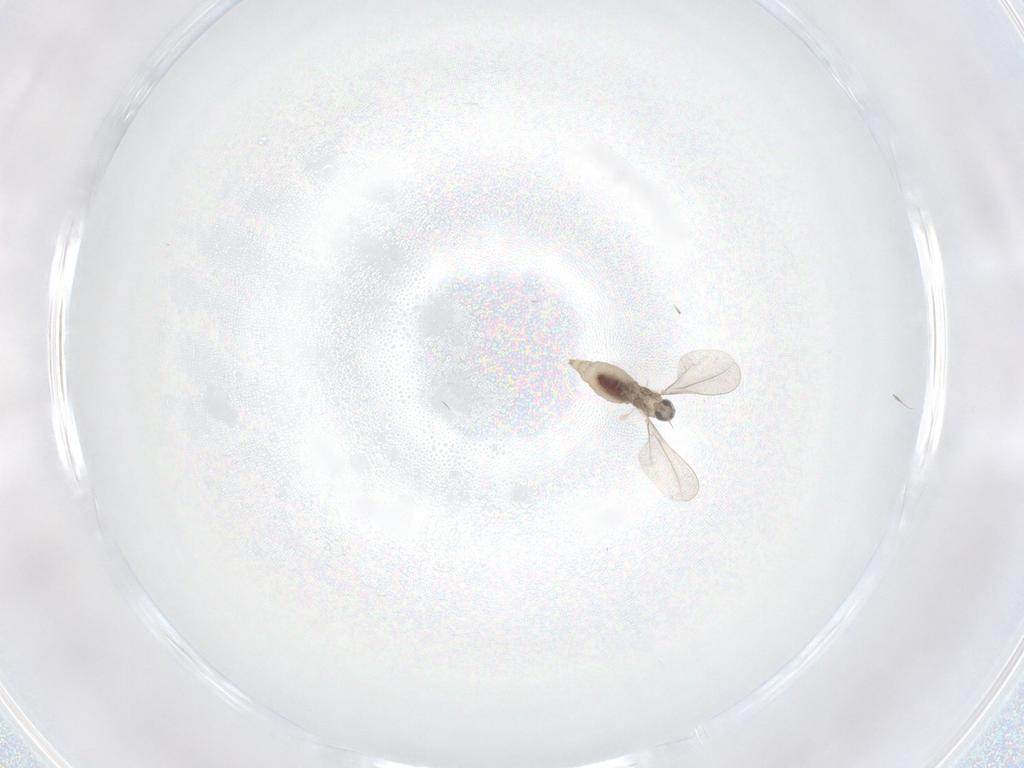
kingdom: Animalia
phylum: Arthropoda
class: Insecta
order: Diptera
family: Cecidomyiidae
